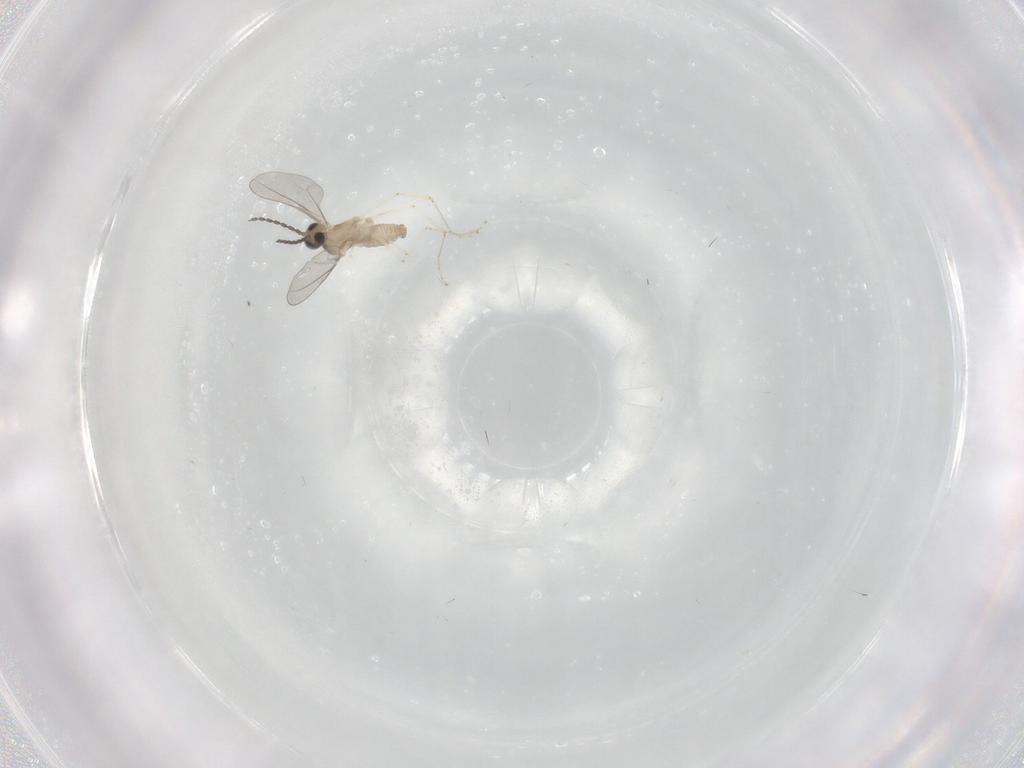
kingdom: Animalia
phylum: Arthropoda
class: Insecta
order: Diptera
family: Cecidomyiidae
